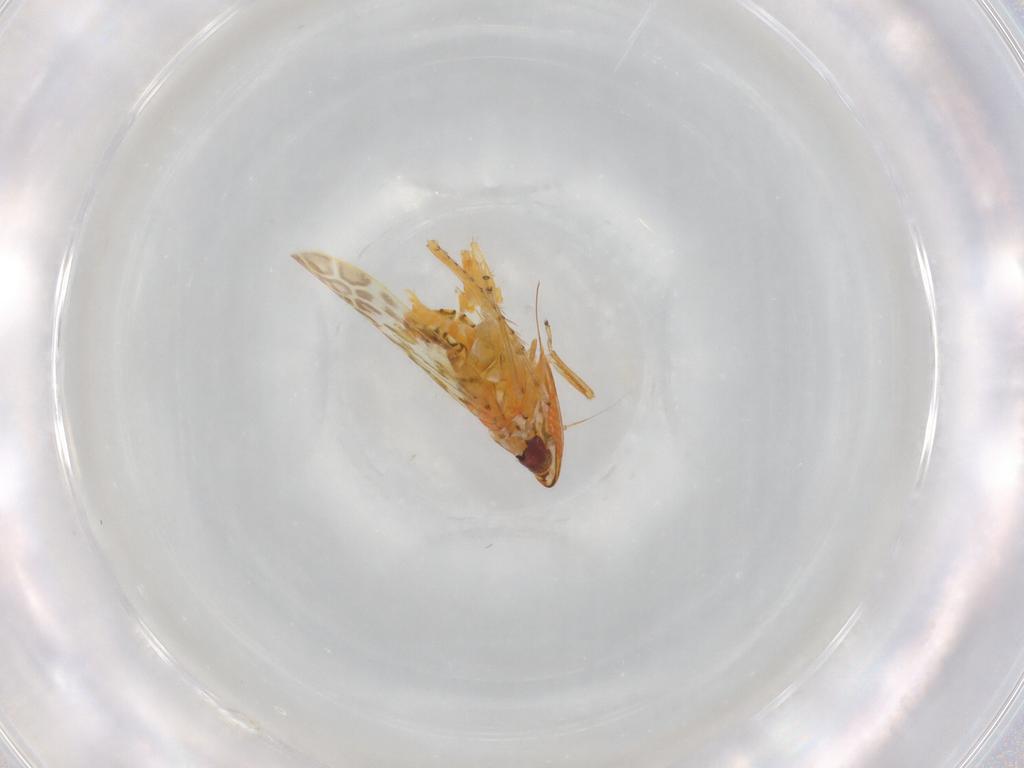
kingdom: Animalia
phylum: Arthropoda
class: Insecta
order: Hemiptera
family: Cicadellidae
